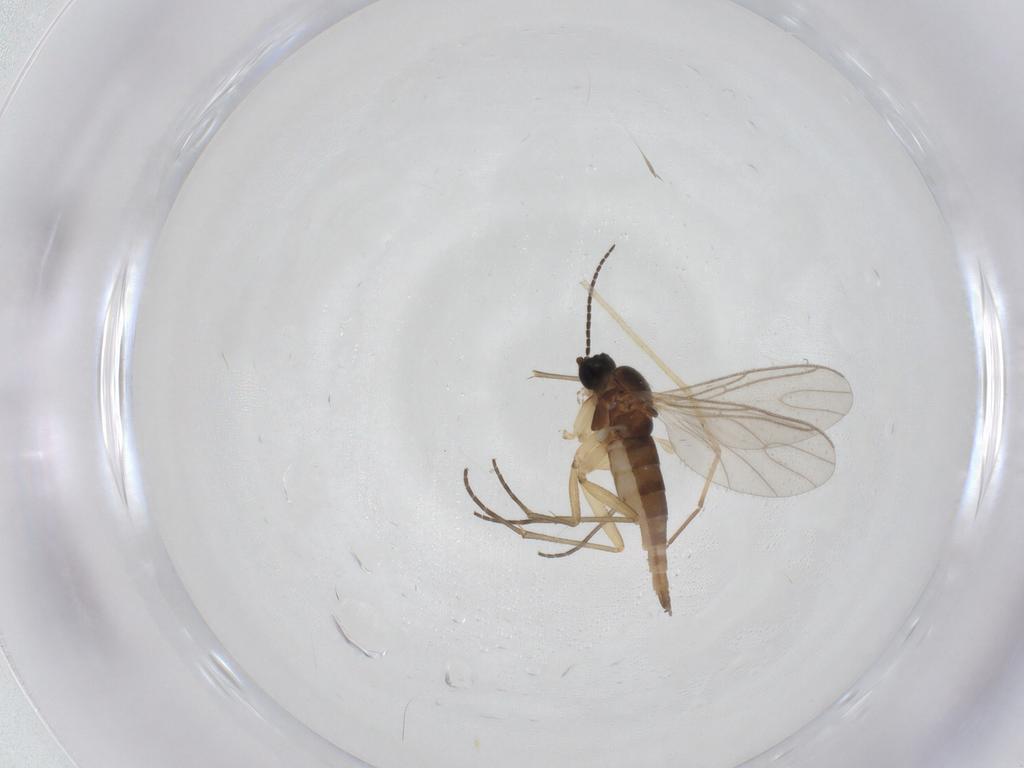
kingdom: Animalia
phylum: Arthropoda
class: Insecta
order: Diptera
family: Sciaridae
